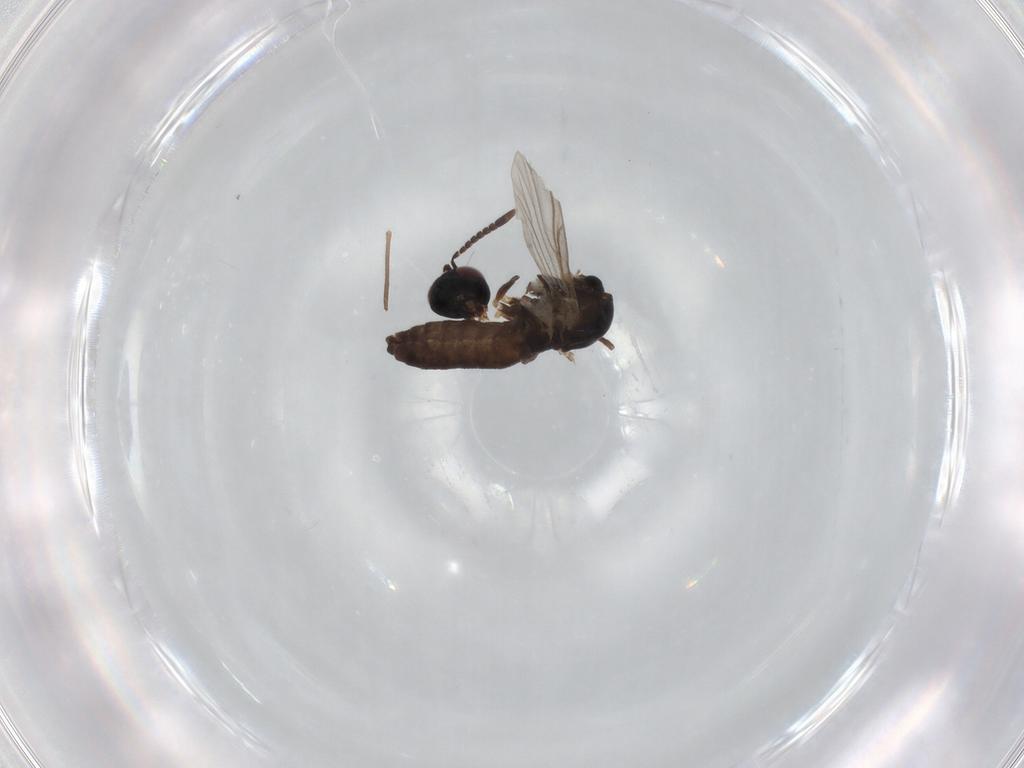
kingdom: Animalia
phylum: Arthropoda
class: Insecta
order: Diptera
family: Chironomidae
